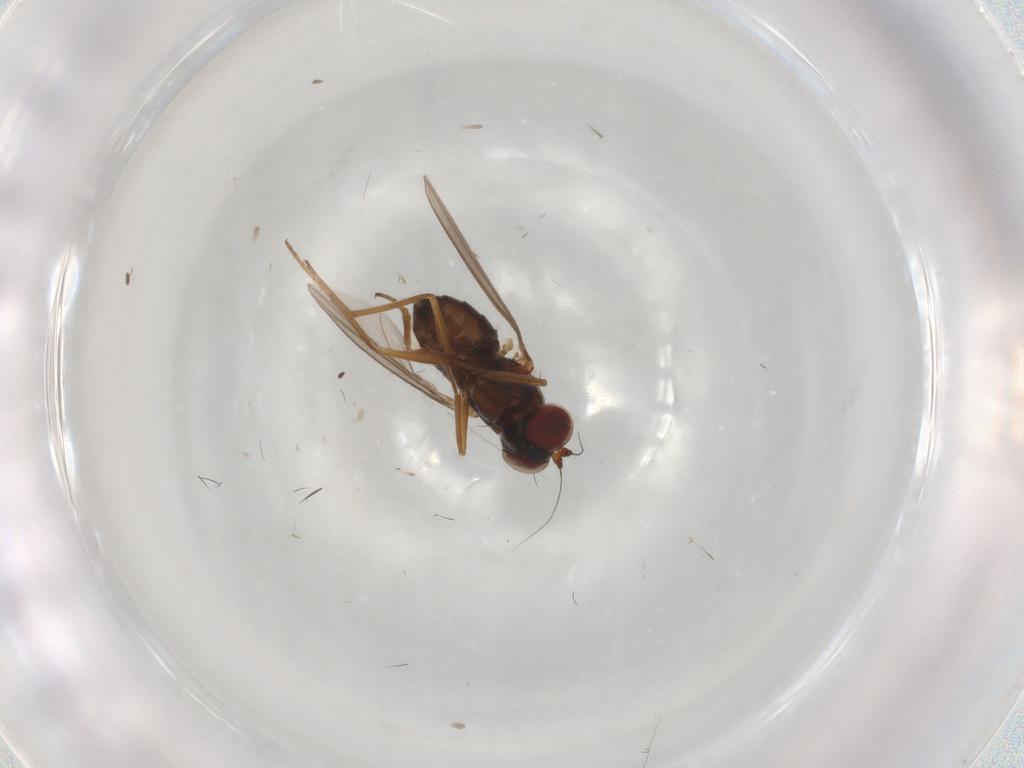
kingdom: Animalia
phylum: Arthropoda
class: Insecta
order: Diptera
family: Dolichopodidae
